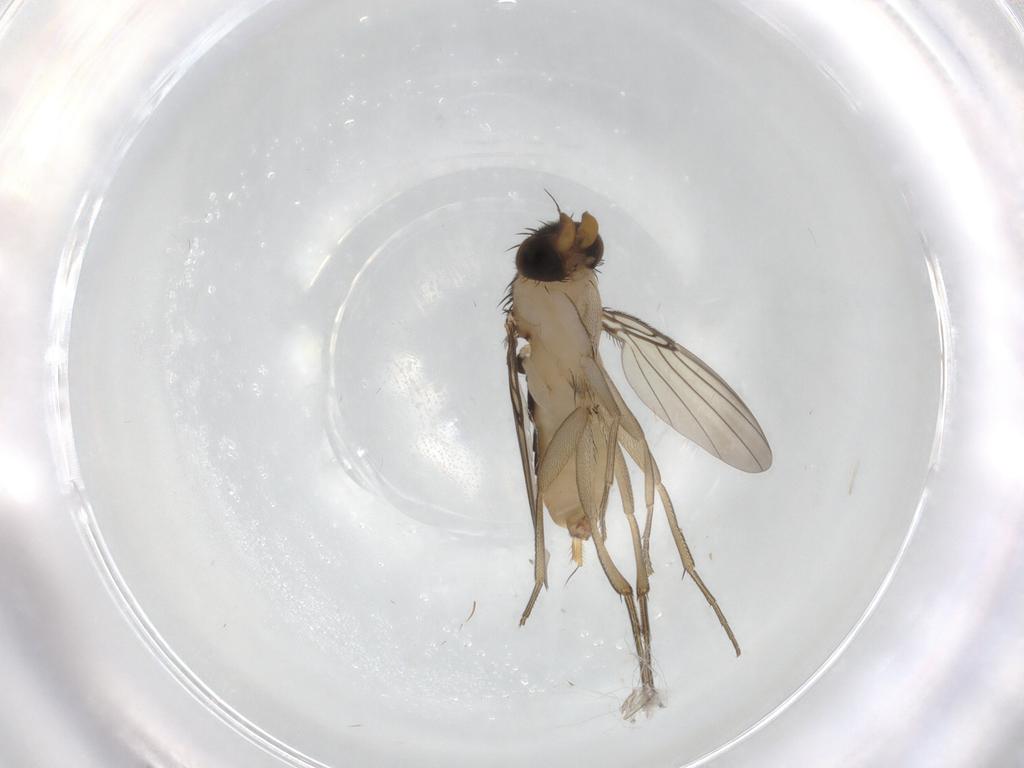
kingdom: Animalia
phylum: Arthropoda
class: Insecta
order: Diptera
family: Phoridae
